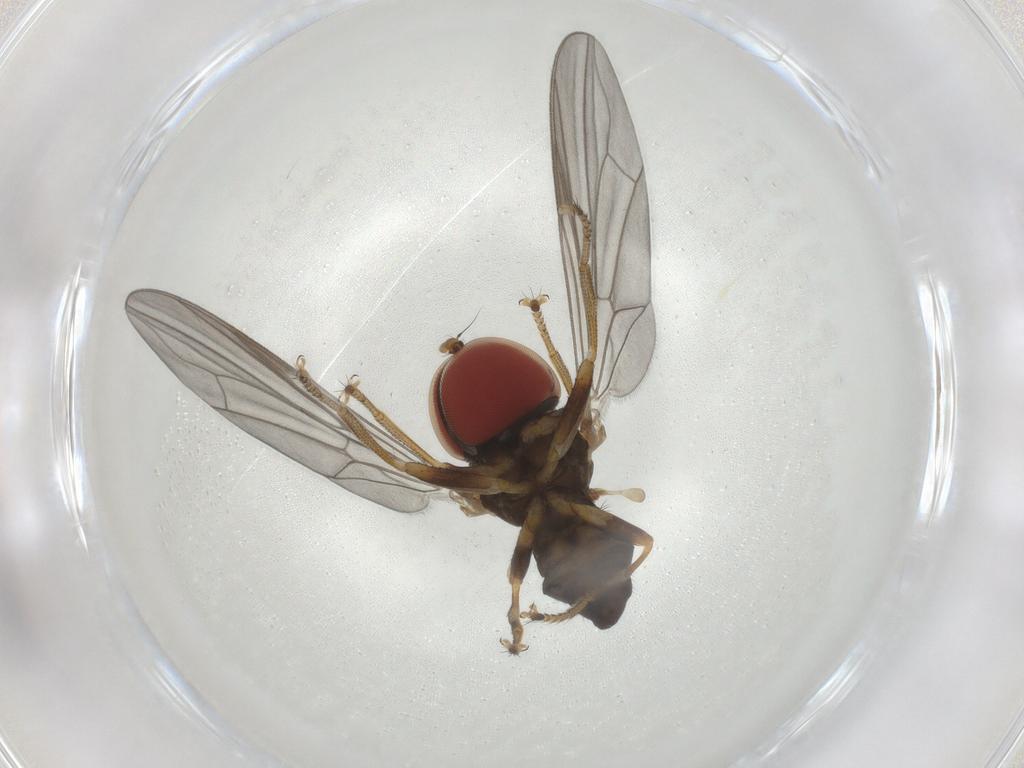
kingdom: Animalia
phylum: Arthropoda
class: Insecta
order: Diptera
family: Pipunculidae
